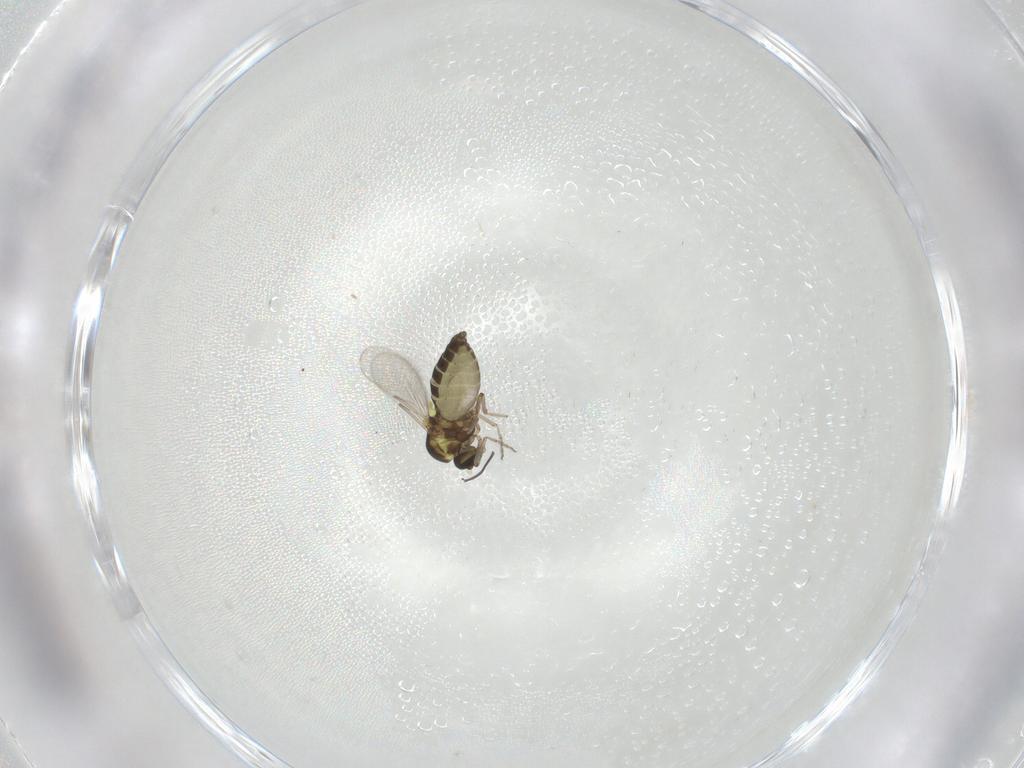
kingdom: Animalia
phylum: Arthropoda
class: Insecta
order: Diptera
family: Ceratopogonidae
